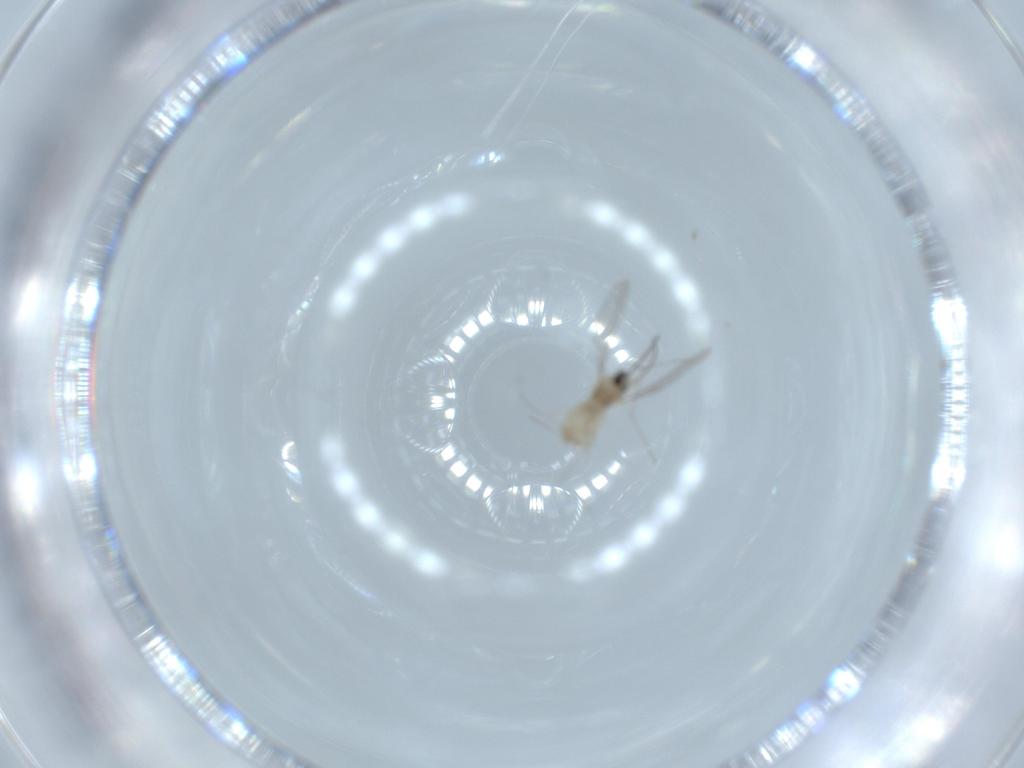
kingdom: Animalia
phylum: Arthropoda
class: Insecta
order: Diptera
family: Cecidomyiidae
